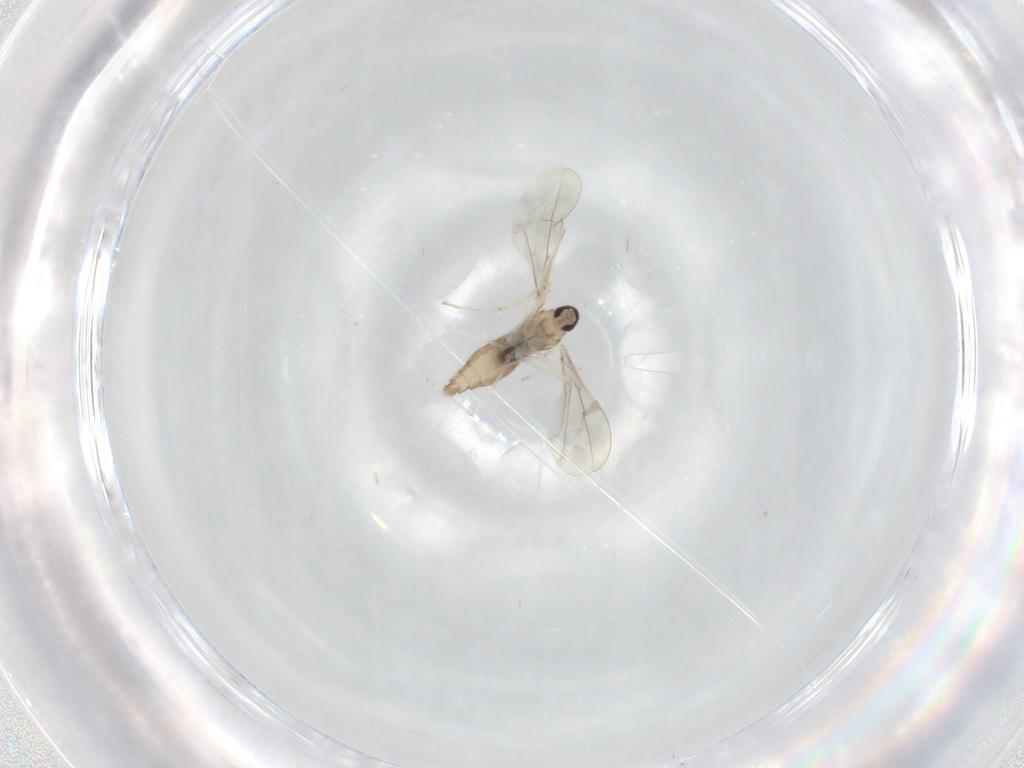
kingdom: Animalia
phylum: Arthropoda
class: Insecta
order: Diptera
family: Cecidomyiidae
